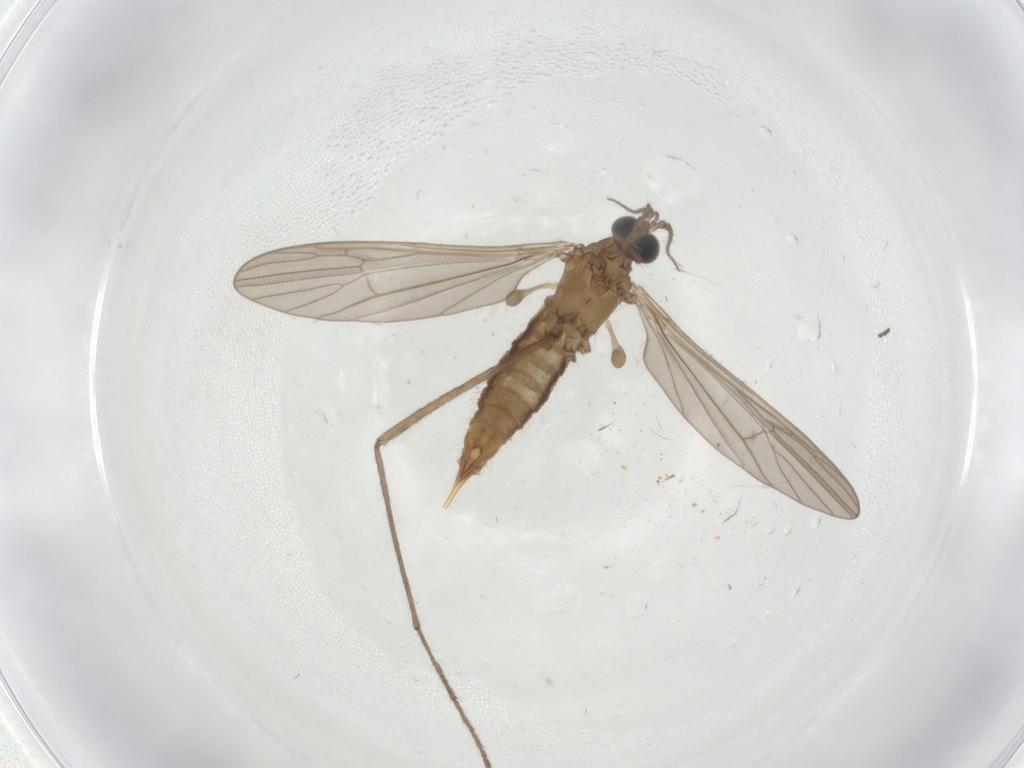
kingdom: Animalia
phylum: Arthropoda
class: Insecta
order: Diptera
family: Limoniidae
